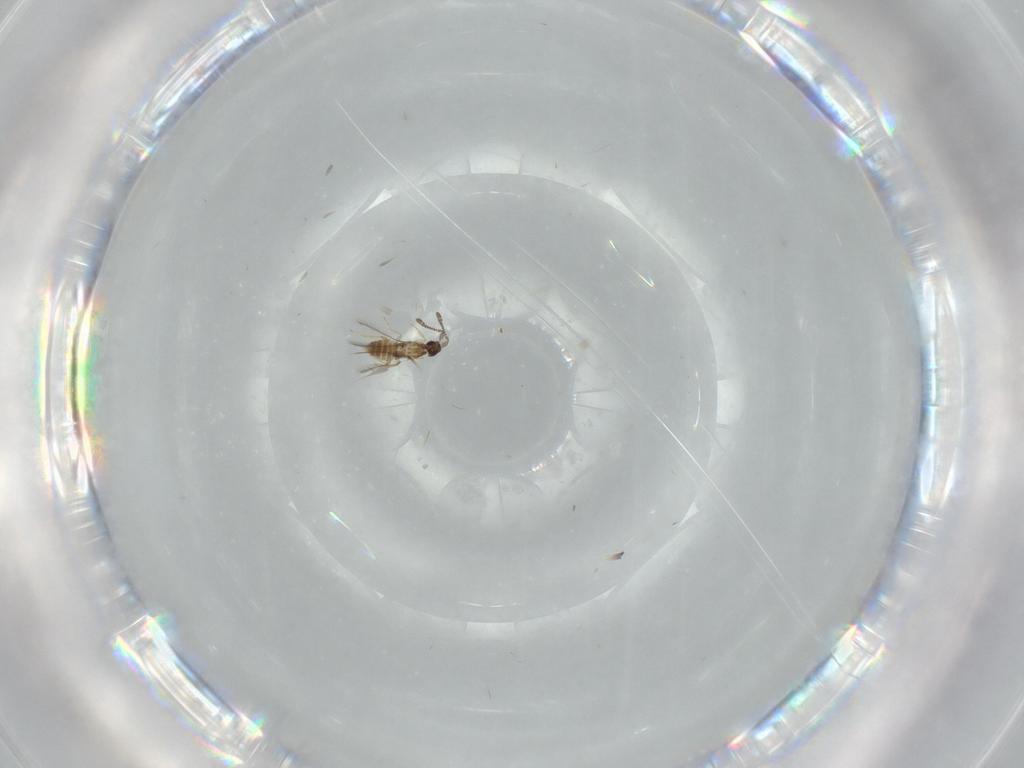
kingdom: Animalia
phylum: Arthropoda
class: Insecta
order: Hymenoptera
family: Mymaridae
